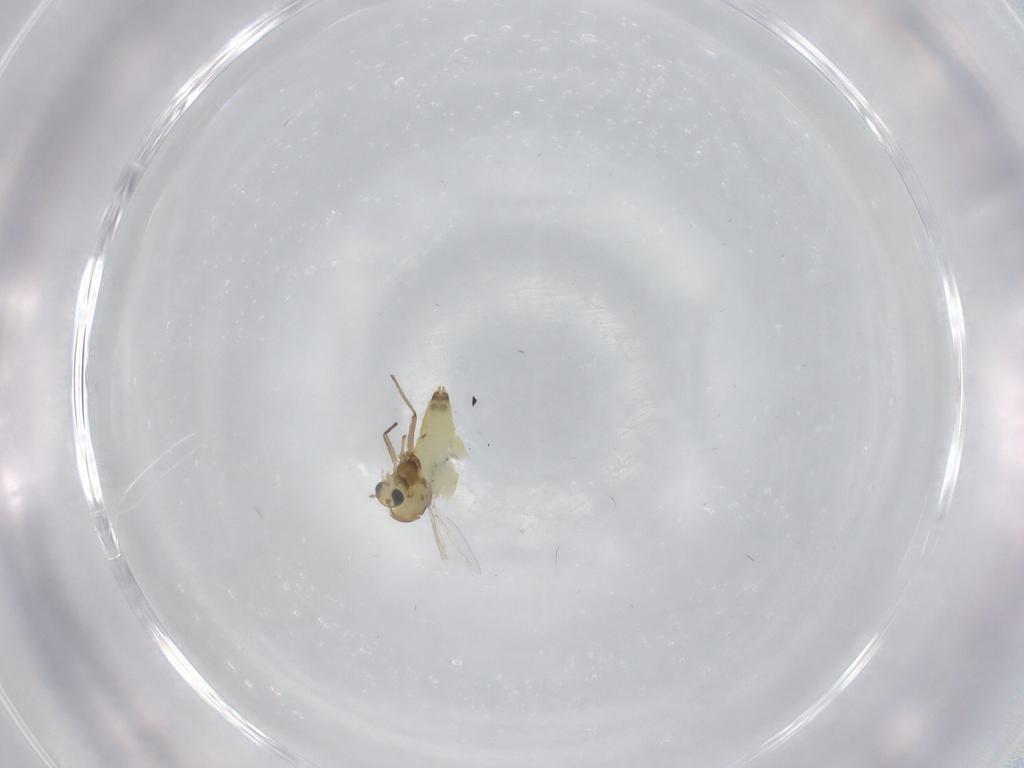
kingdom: Animalia
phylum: Arthropoda
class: Insecta
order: Diptera
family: Chironomidae
